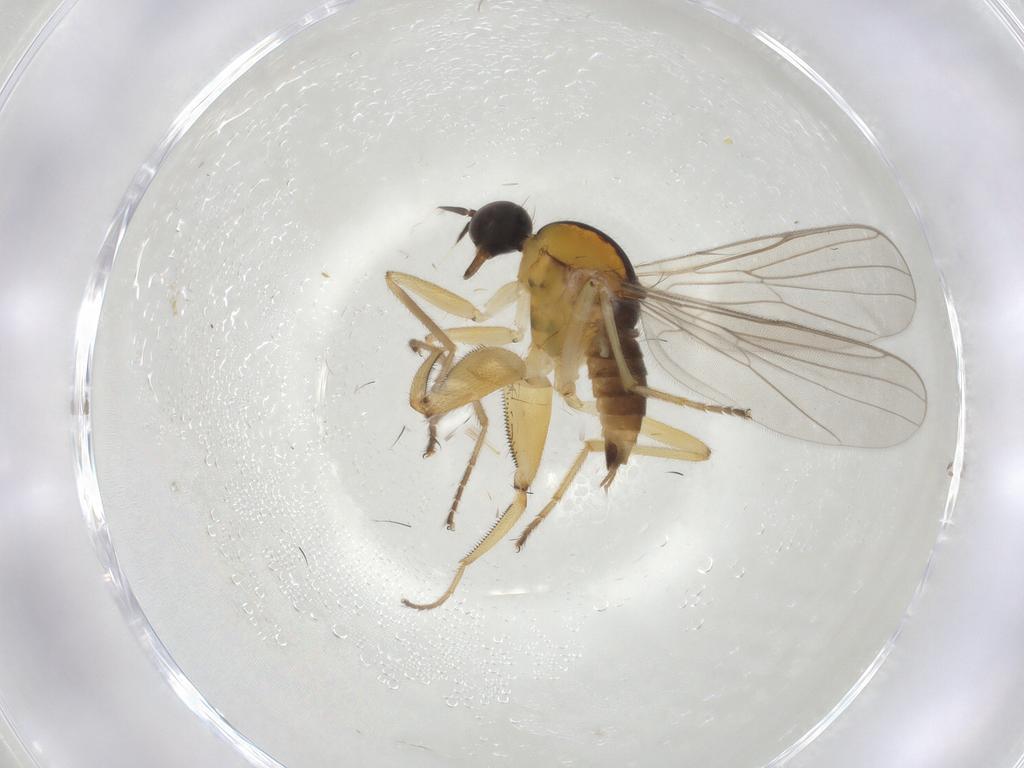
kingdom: Animalia
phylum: Arthropoda
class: Insecta
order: Diptera
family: Hybotidae
